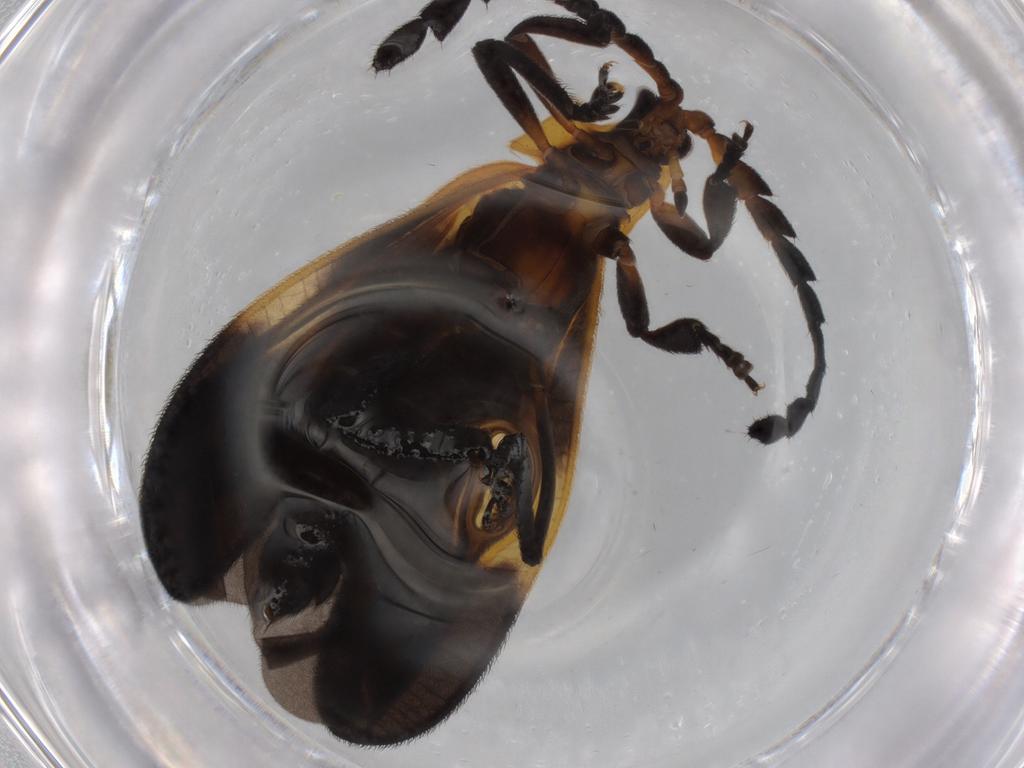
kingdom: Animalia
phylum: Arthropoda
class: Insecta
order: Coleoptera
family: Lycidae
